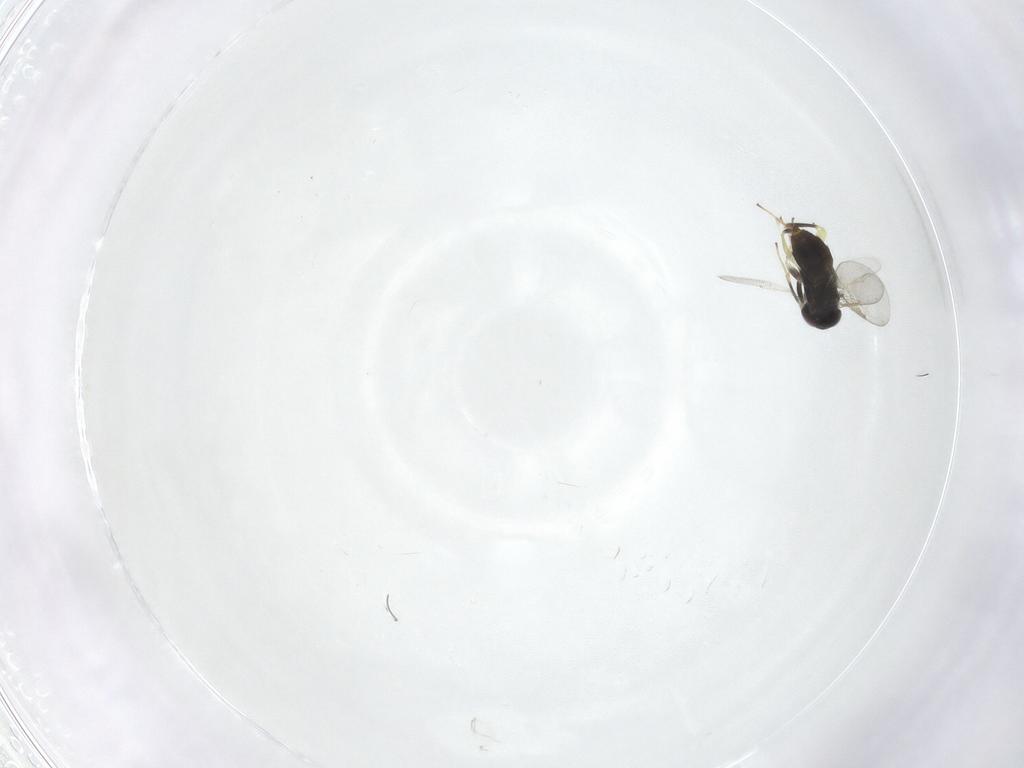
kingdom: Animalia
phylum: Arthropoda
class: Insecta
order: Hymenoptera
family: Aphelinidae
